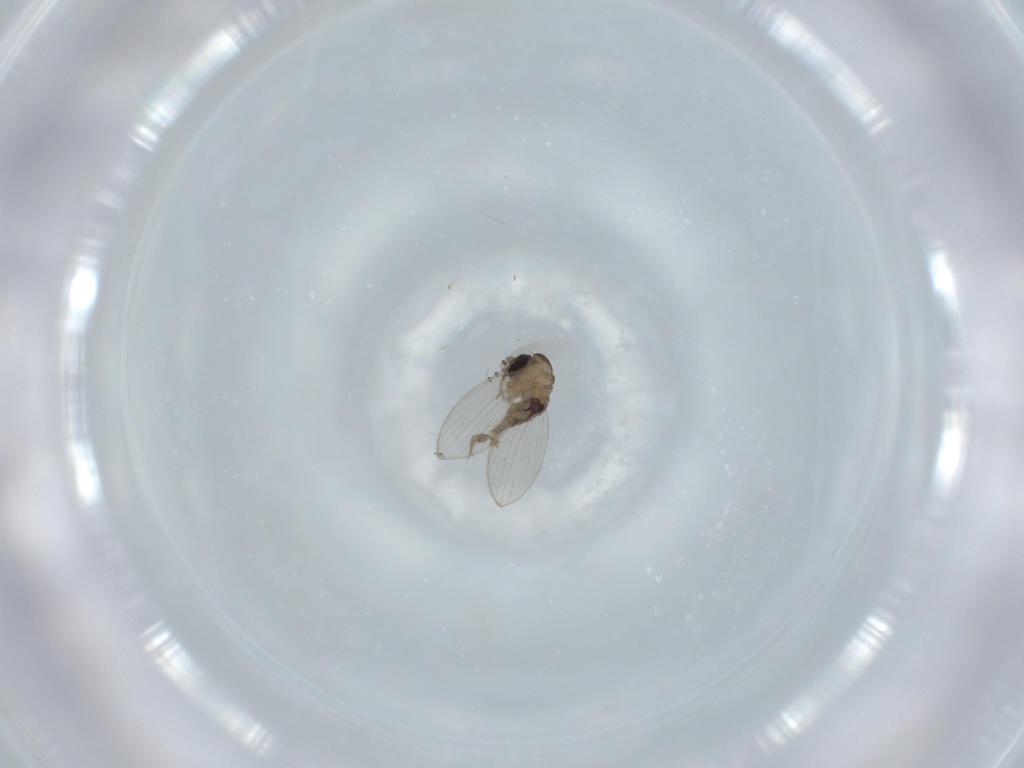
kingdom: Animalia
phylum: Arthropoda
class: Insecta
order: Diptera
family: Psychodidae
